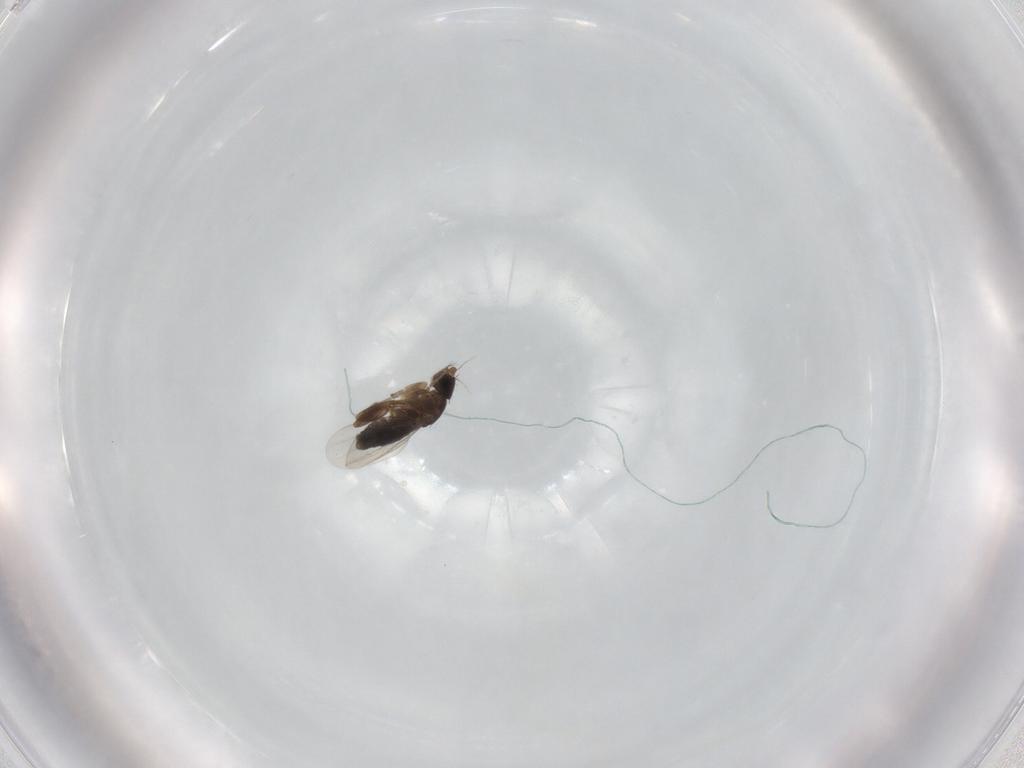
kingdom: Animalia
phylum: Arthropoda
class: Insecta
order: Diptera
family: Phoridae
